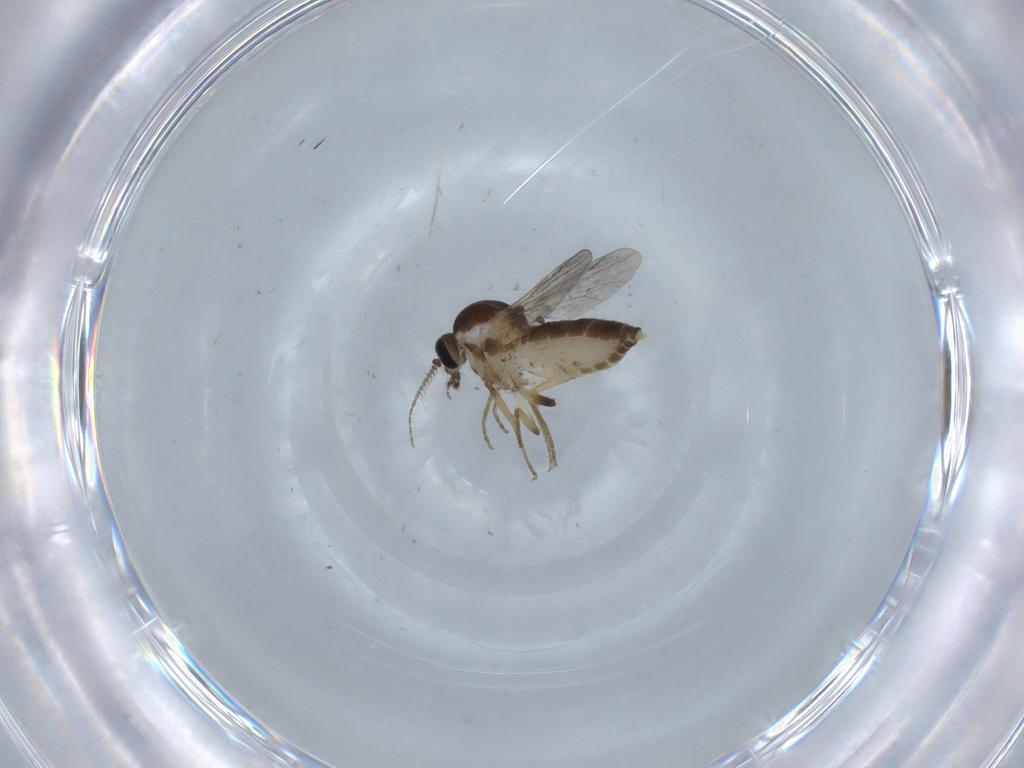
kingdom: Animalia
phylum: Arthropoda
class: Insecta
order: Diptera
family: Ceratopogonidae
